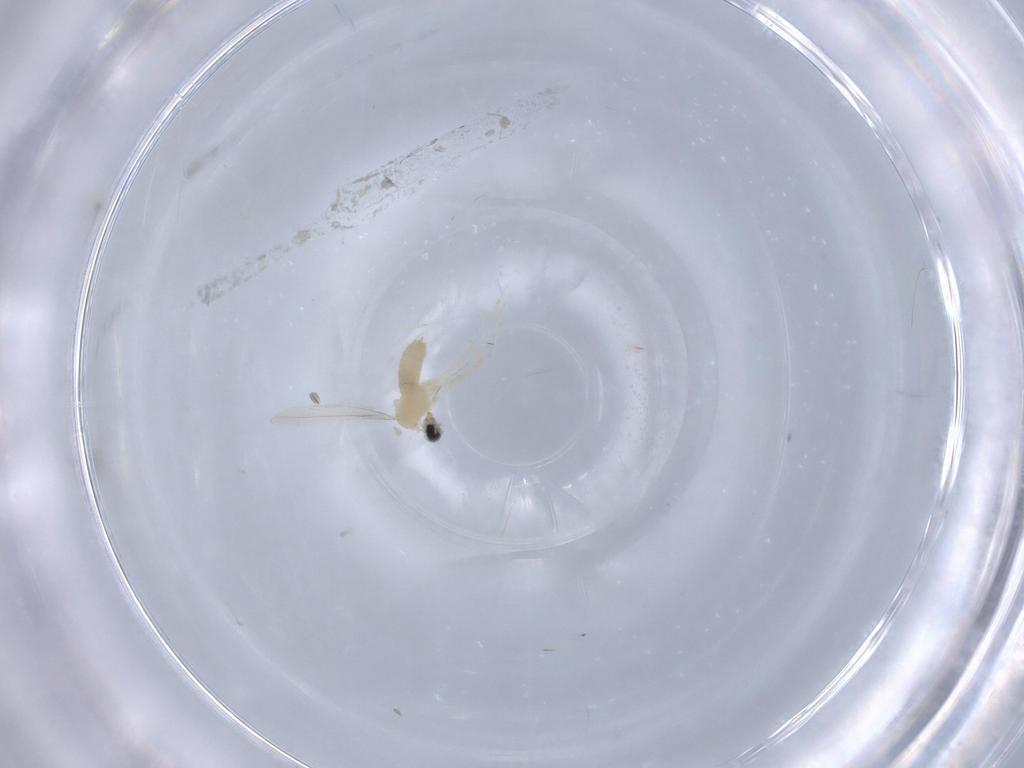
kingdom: Animalia
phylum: Arthropoda
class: Insecta
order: Diptera
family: Cecidomyiidae
